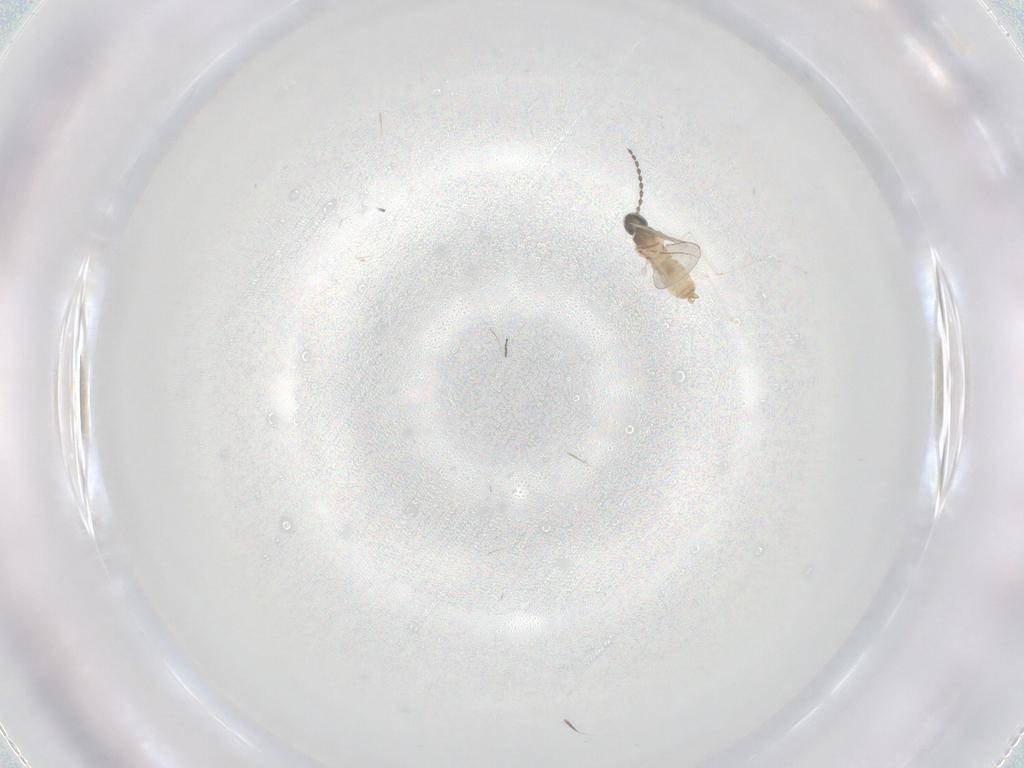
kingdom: Animalia
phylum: Arthropoda
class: Insecta
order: Diptera
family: Cecidomyiidae
